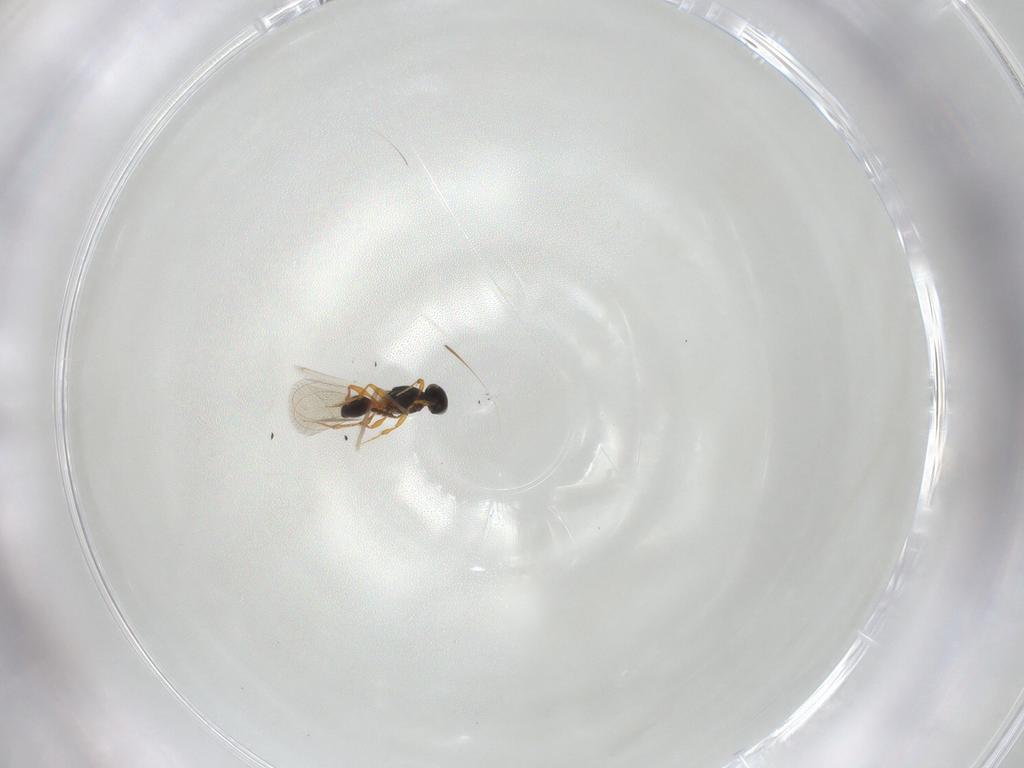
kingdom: Animalia
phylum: Arthropoda
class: Insecta
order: Hymenoptera
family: Platygastridae
